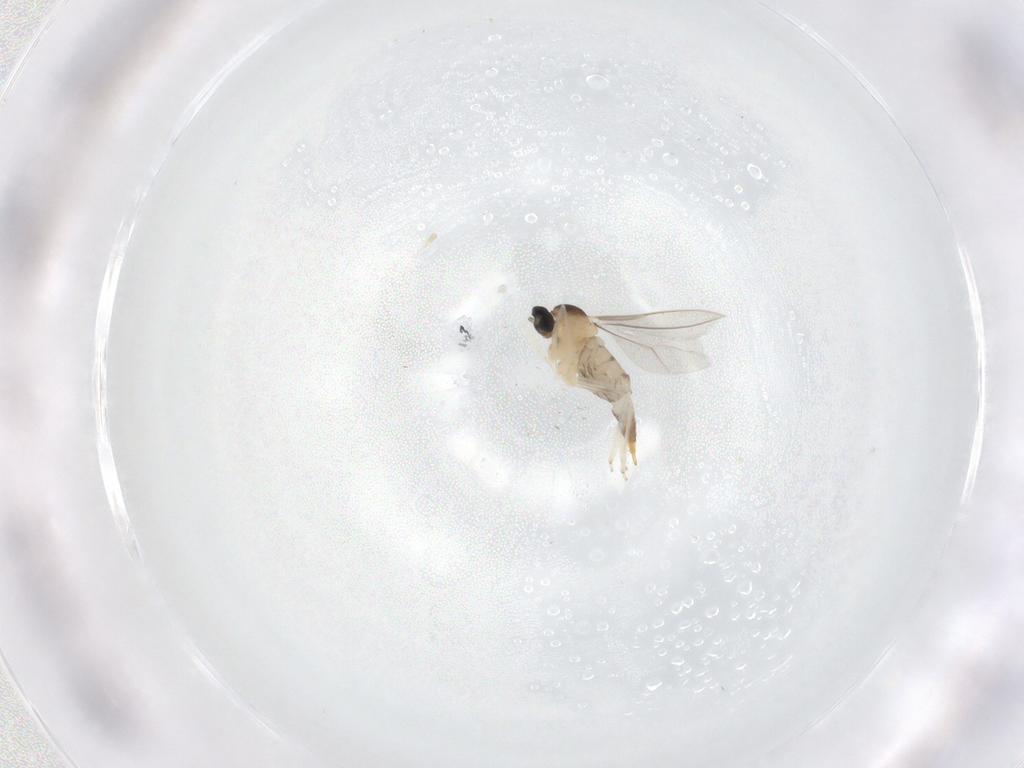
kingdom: Animalia
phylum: Arthropoda
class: Insecta
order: Diptera
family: Cecidomyiidae
